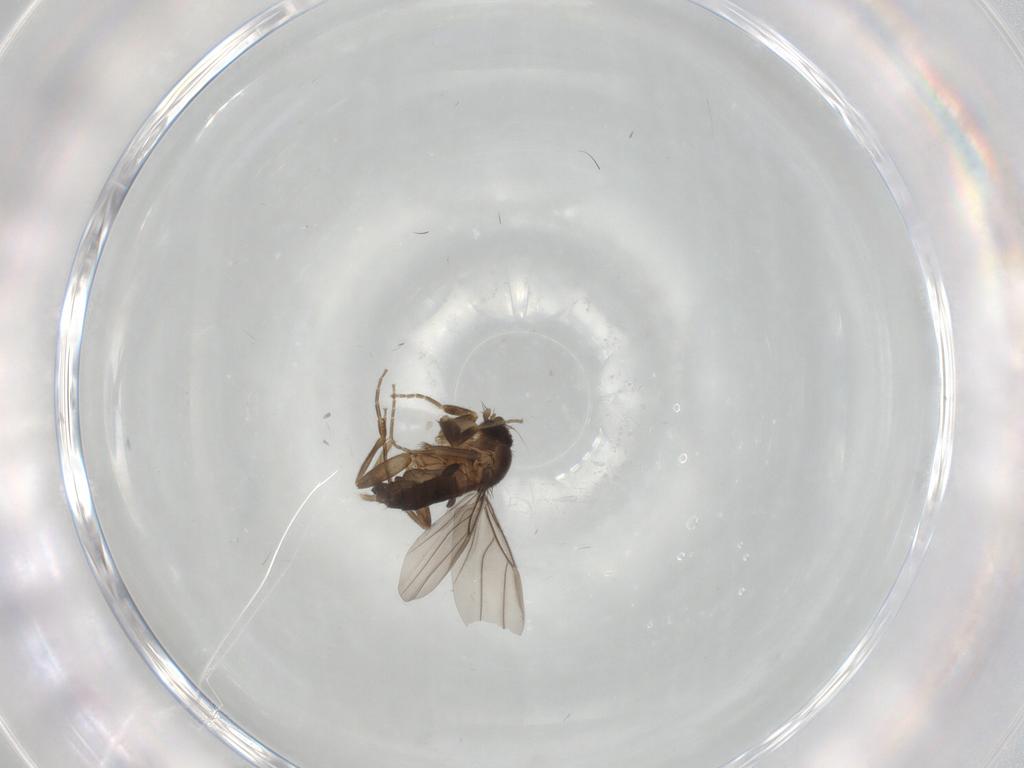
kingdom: Animalia
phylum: Arthropoda
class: Insecta
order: Diptera
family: Phoridae
